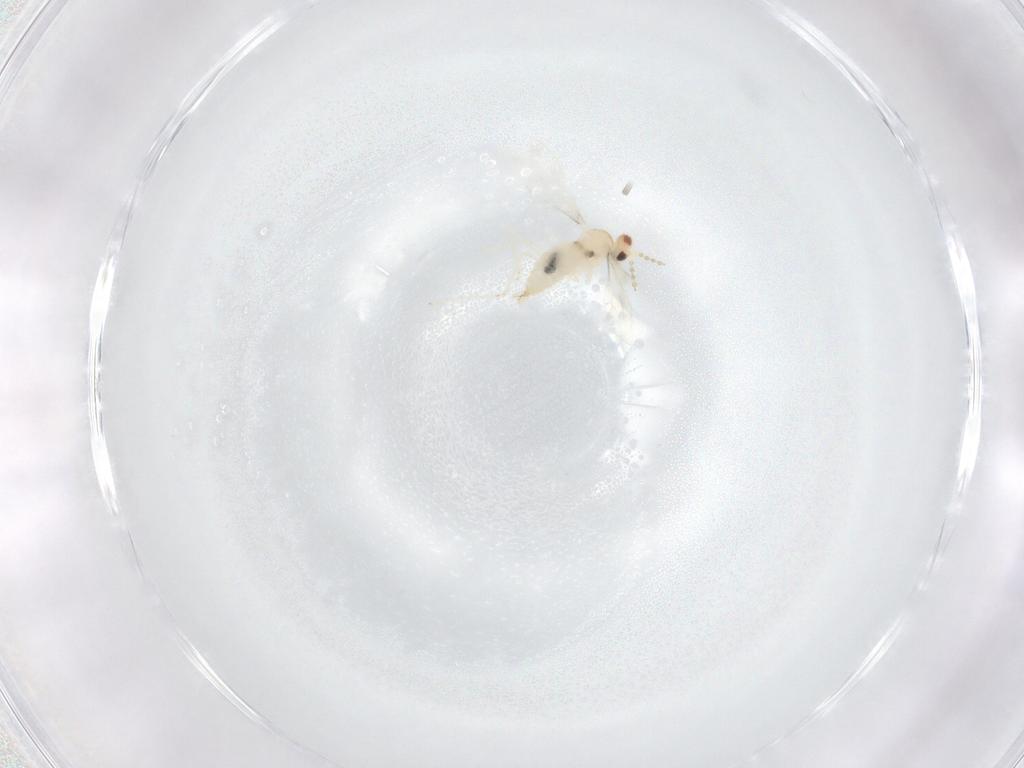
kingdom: Animalia
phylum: Arthropoda
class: Insecta
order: Diptera
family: Cecidomyiidae
